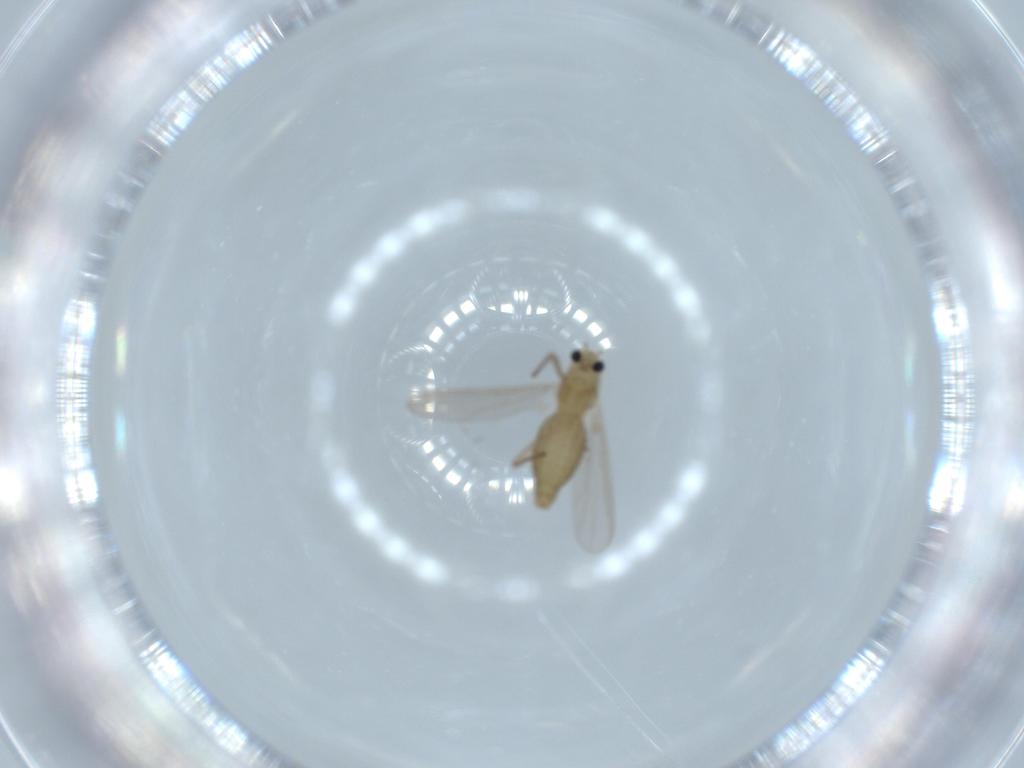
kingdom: Animalia
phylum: Arthropoda
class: Insecta
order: Diptera
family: Chironomidae
